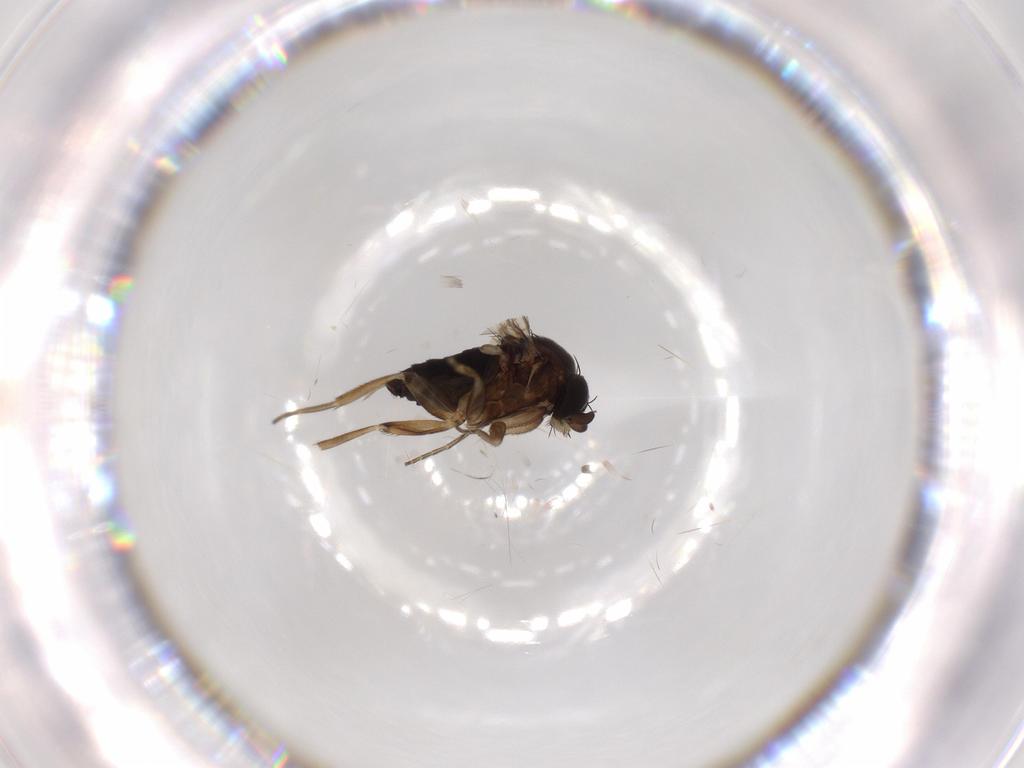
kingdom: Animalia
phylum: Arthropoda
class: Insecta
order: Diptera
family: Phoridae
